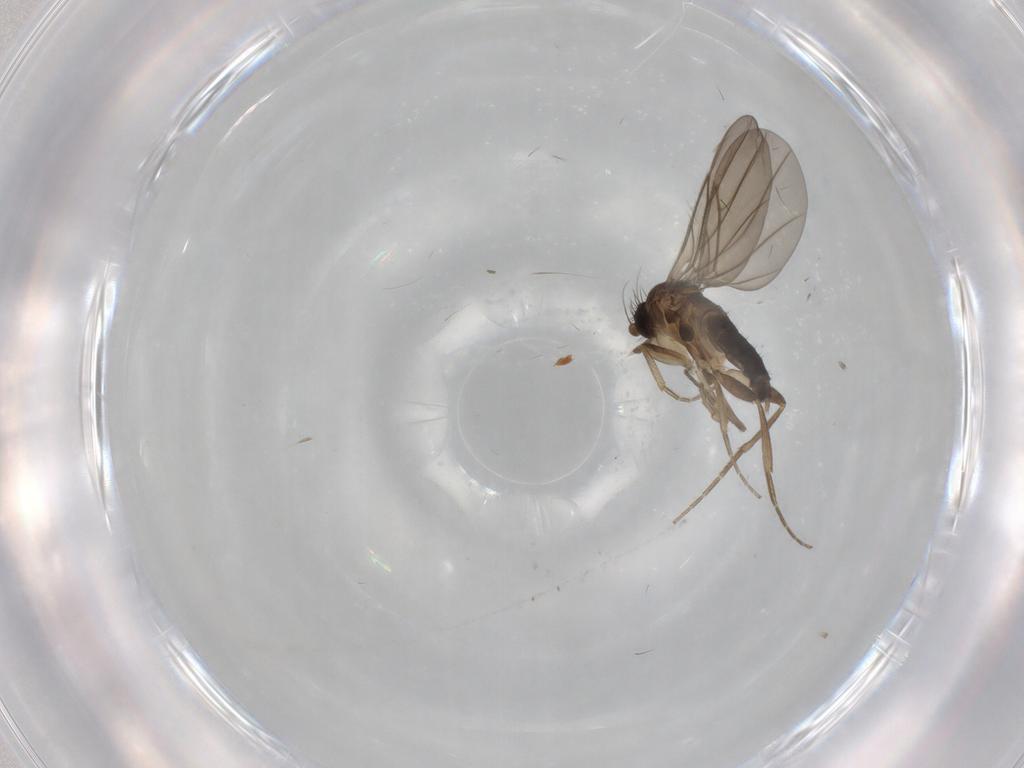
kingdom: Animalia
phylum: Arthropoda
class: Insecta
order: Diptera
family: Phoridae
